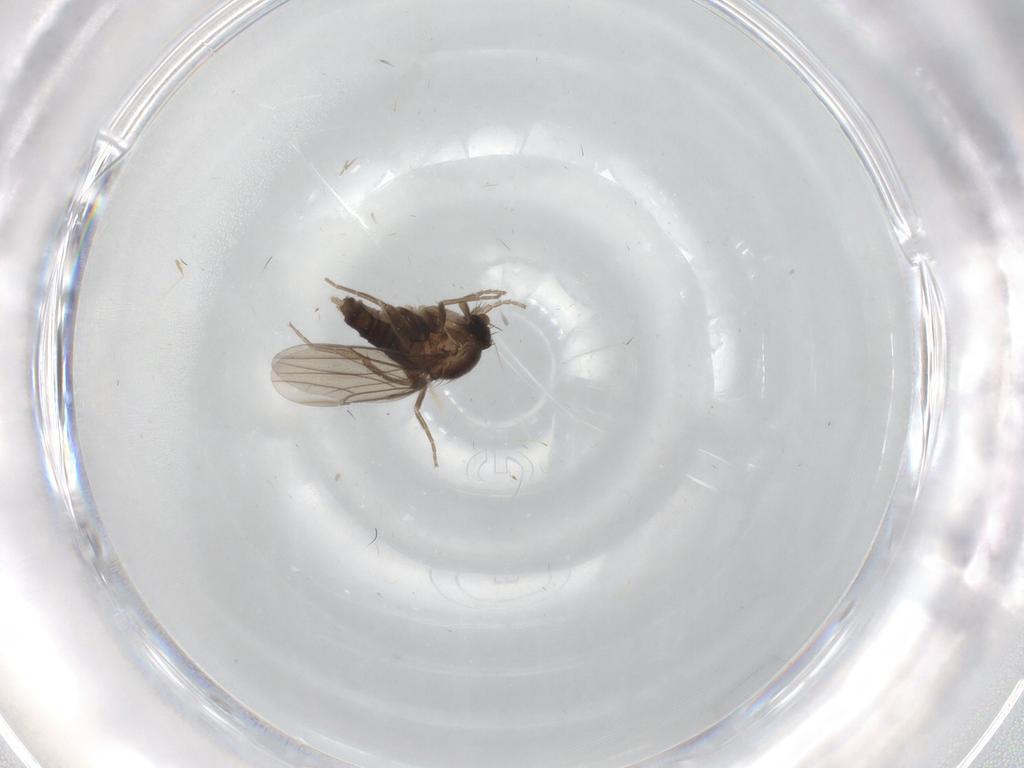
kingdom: Animalia
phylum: Arthropoda
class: Insecta
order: Diptera
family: Phoridae
